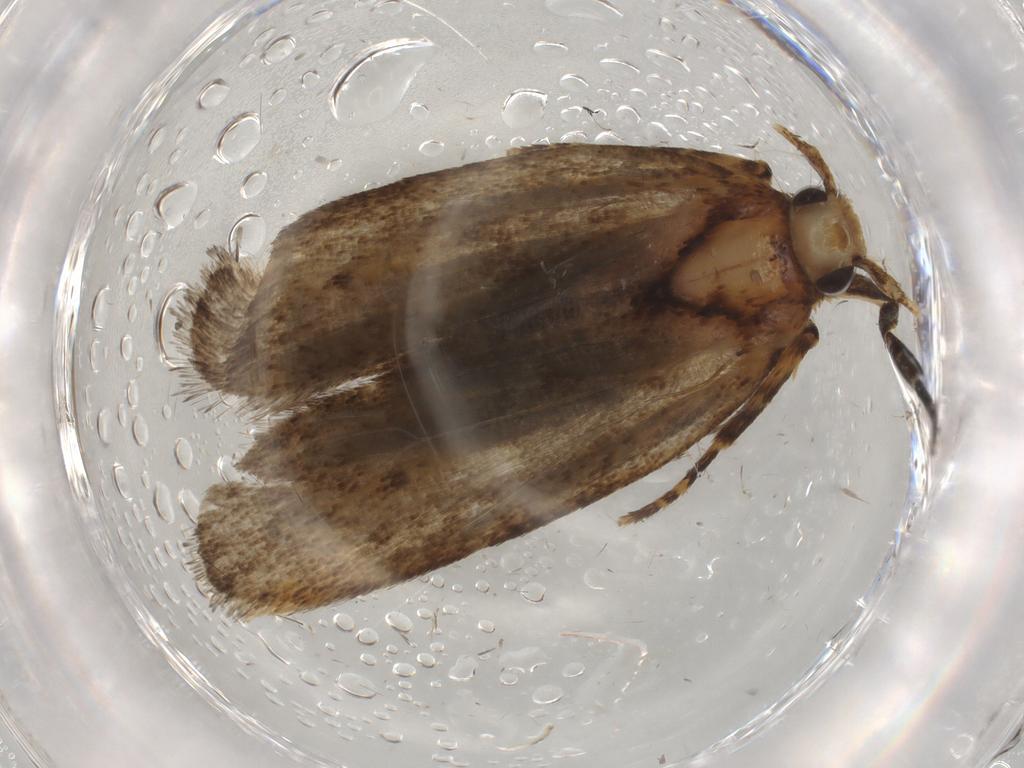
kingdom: Animalia
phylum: Arthropoda
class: Insecta
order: Lepidoptera
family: Autostichidae
